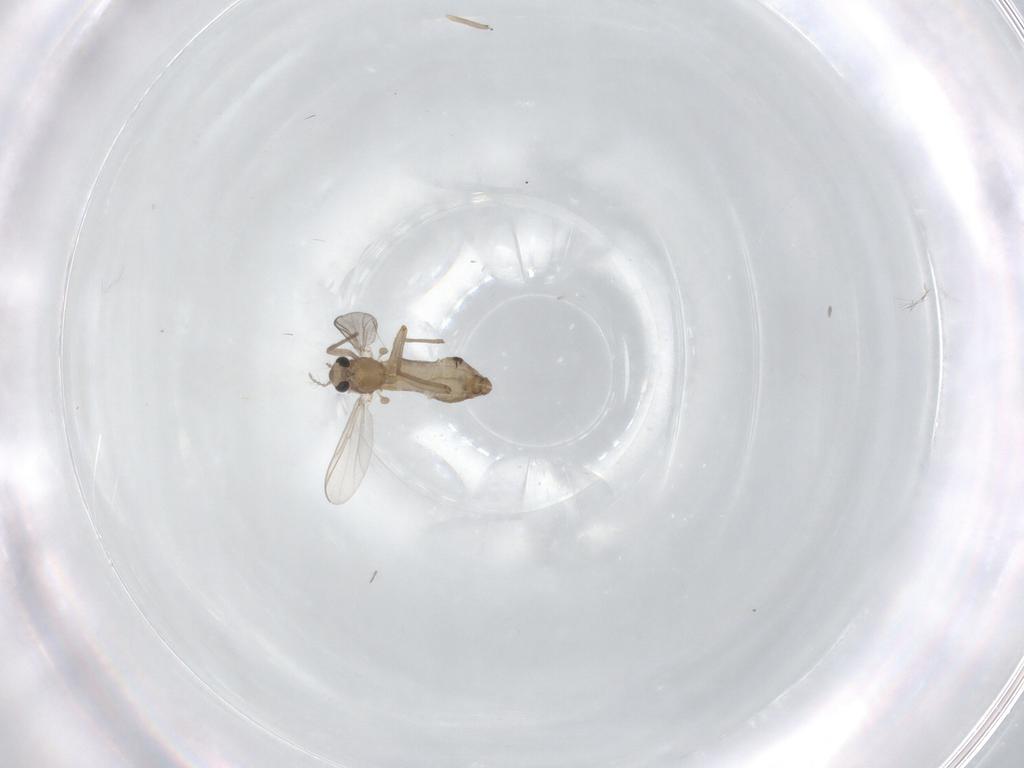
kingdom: Animalia
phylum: Arthropoda
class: Insecta
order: Diptera
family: Chironomidae
